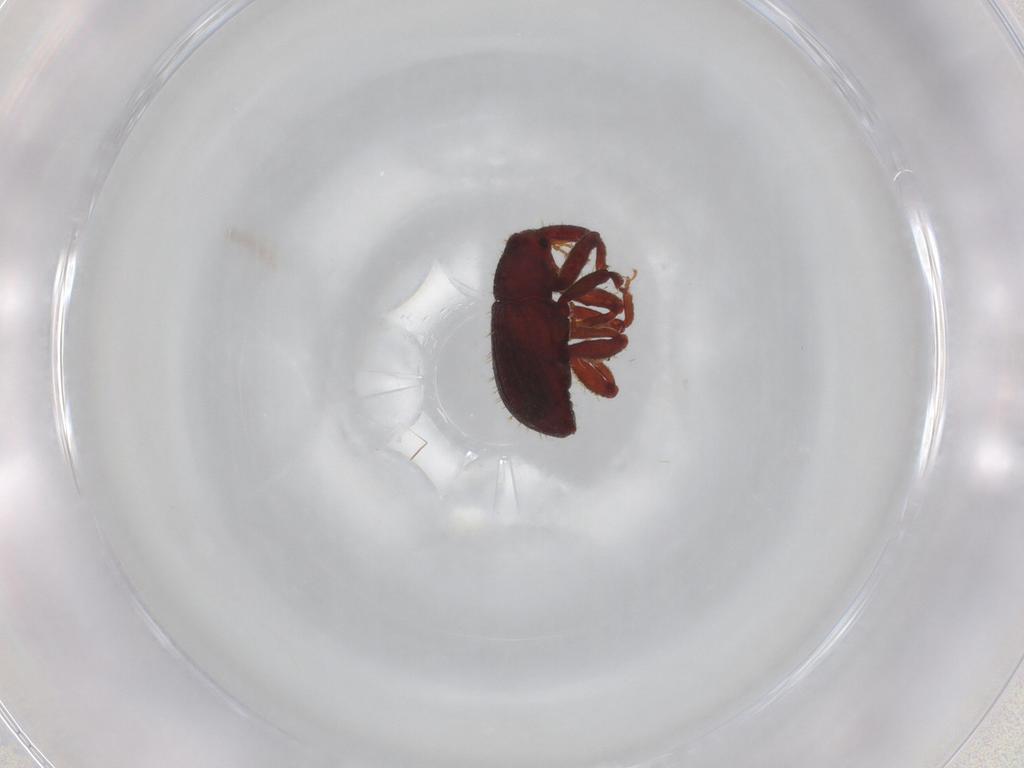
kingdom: Animalia
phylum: Arthropoda
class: Insecta
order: Coleoptera
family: Curculionidae
